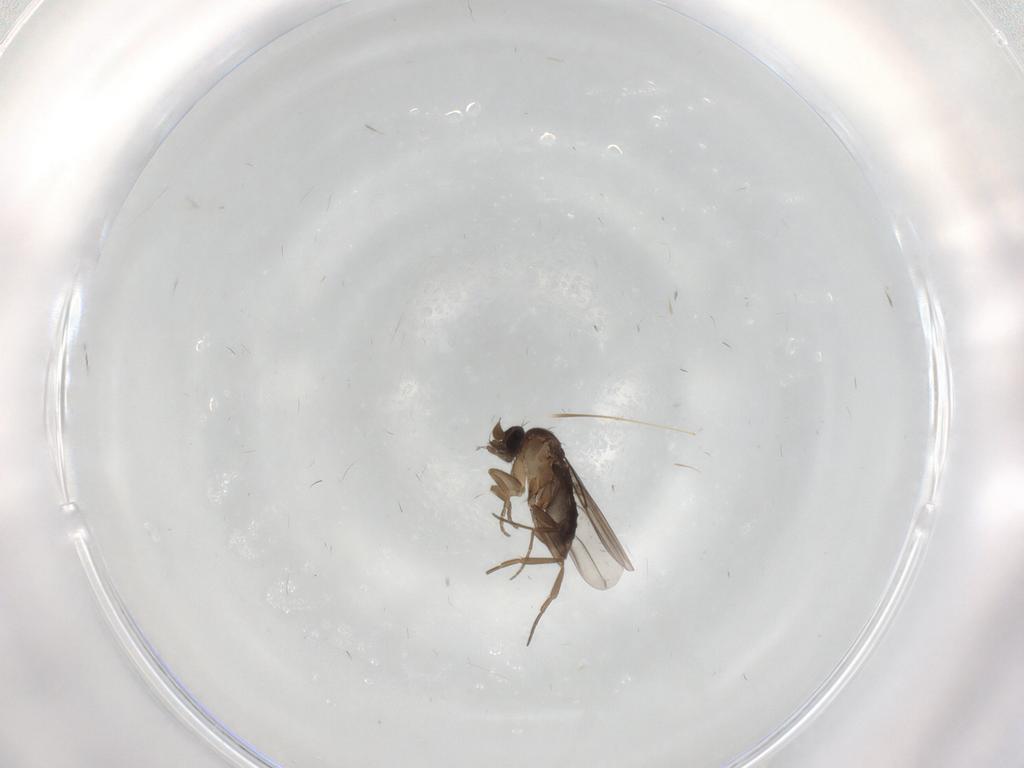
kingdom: Animalia
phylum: Arthropoda
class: Insecta
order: Diptera
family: Phoridae
